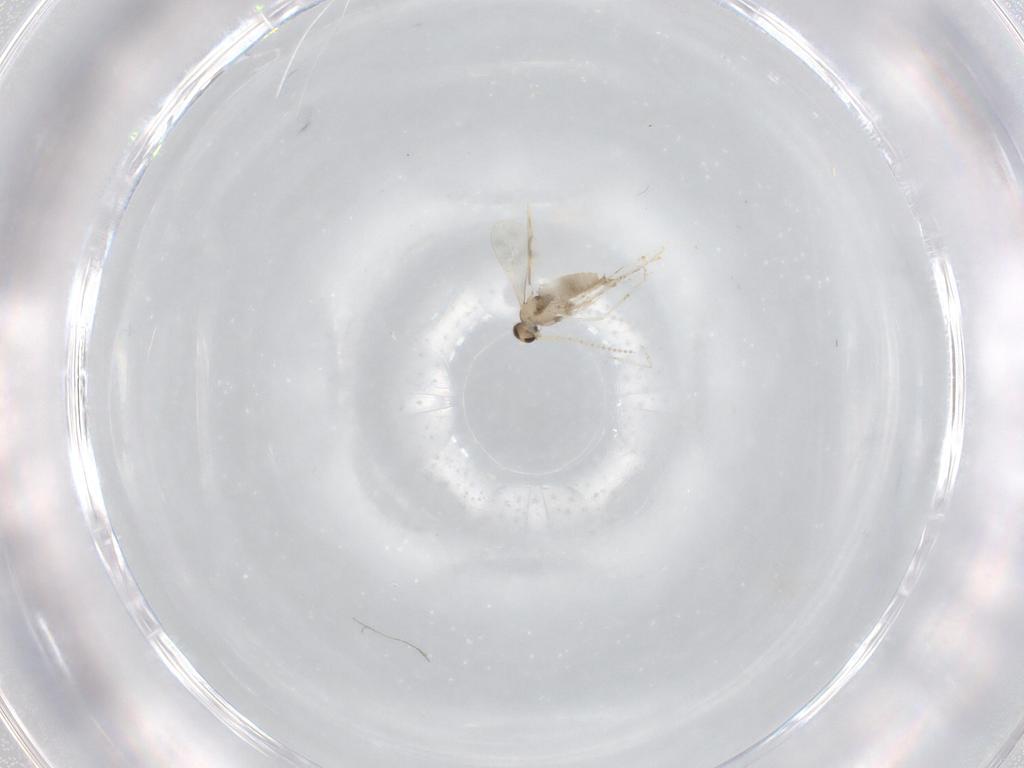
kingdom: Animalia
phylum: Arthropoda
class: Insecta
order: Diptera
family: Cecidomyiidae
